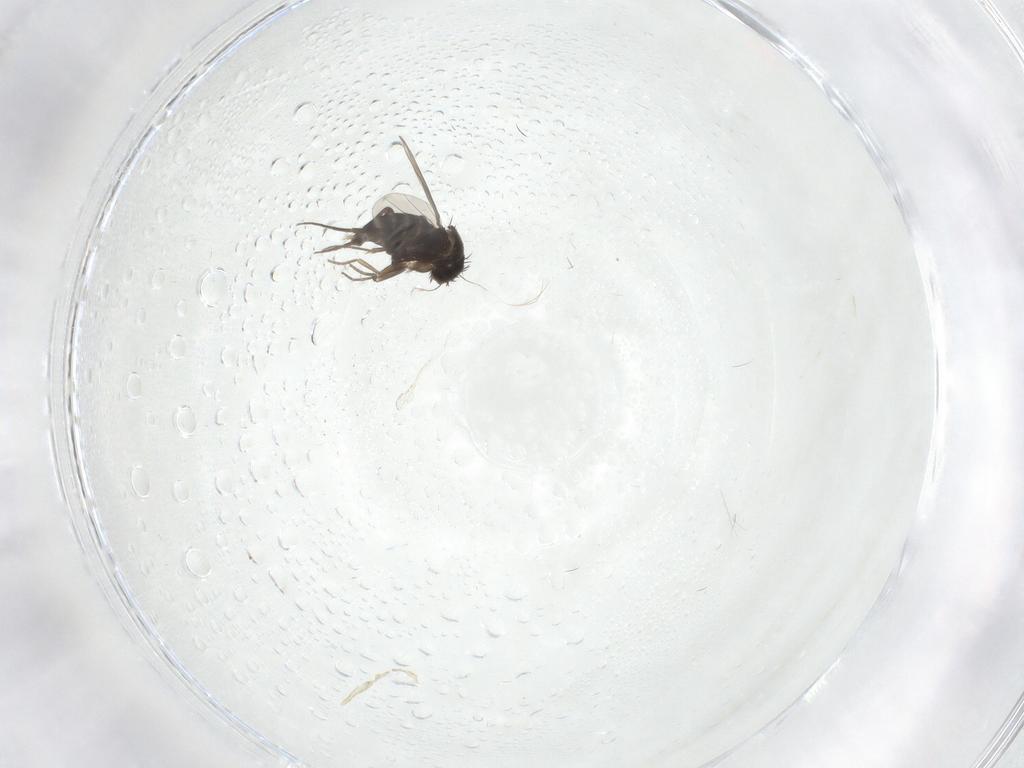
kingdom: Animalia
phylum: Arthropoda
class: Insecta
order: Diptera
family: Phoridae
